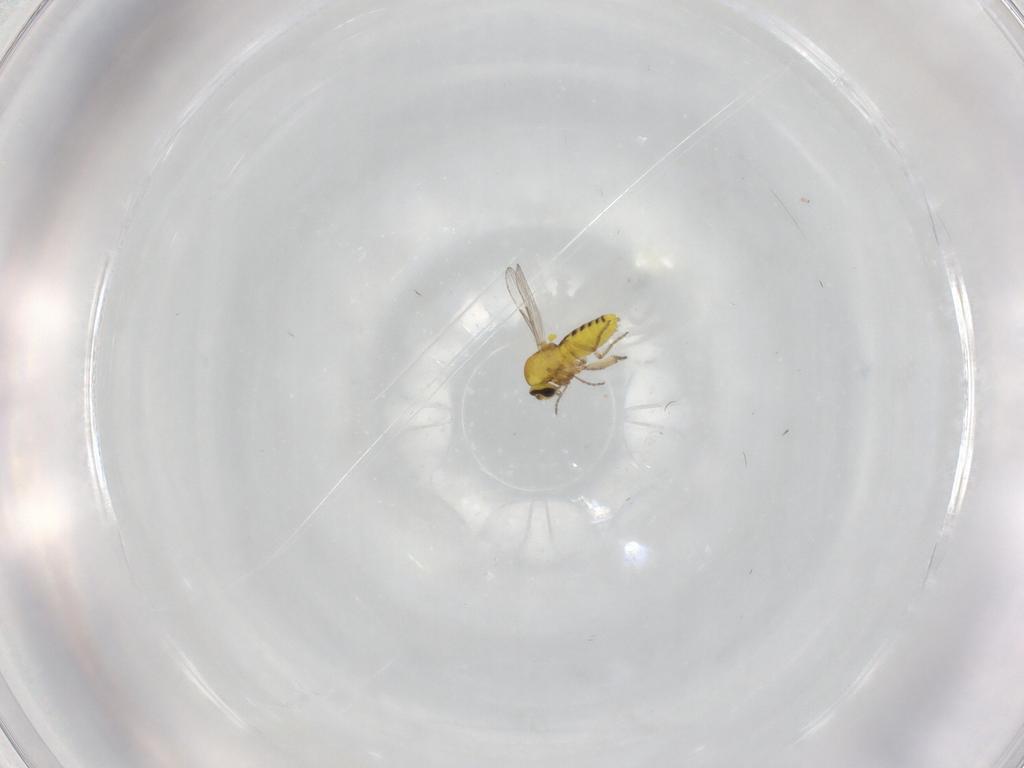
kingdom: Animalia
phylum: Arthropoda
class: Insecta
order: Diptera
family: Ceratopogonidae
